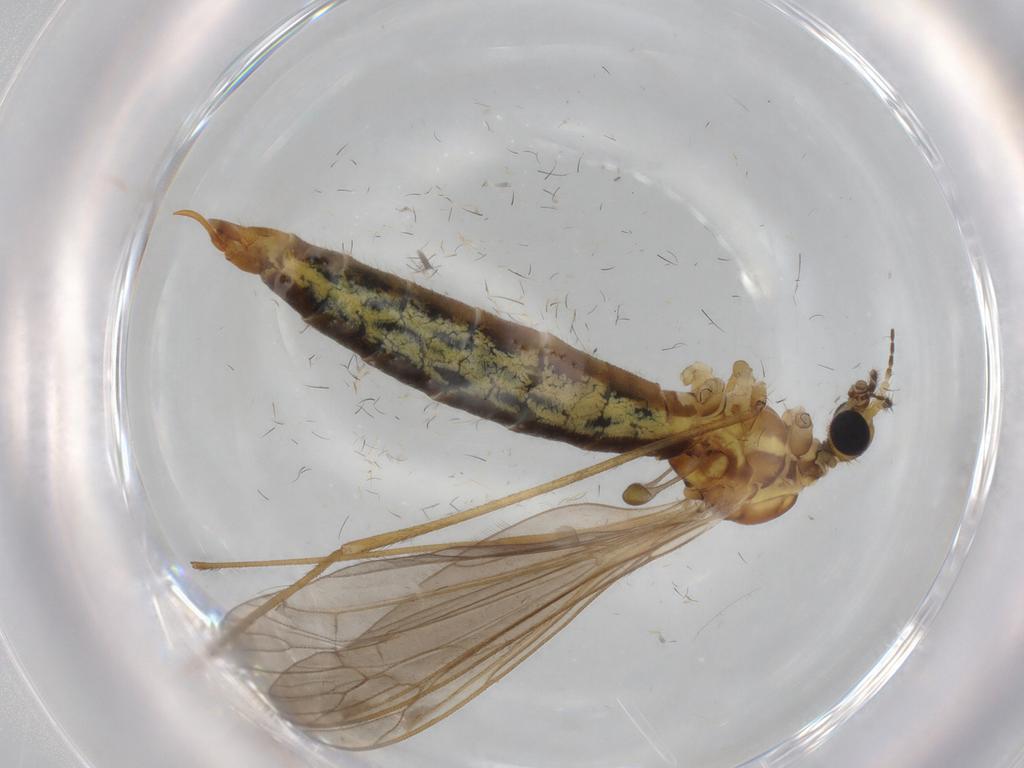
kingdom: Animalia
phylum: Arthropoda
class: Insecta
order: Diptera
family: Limoniidae
